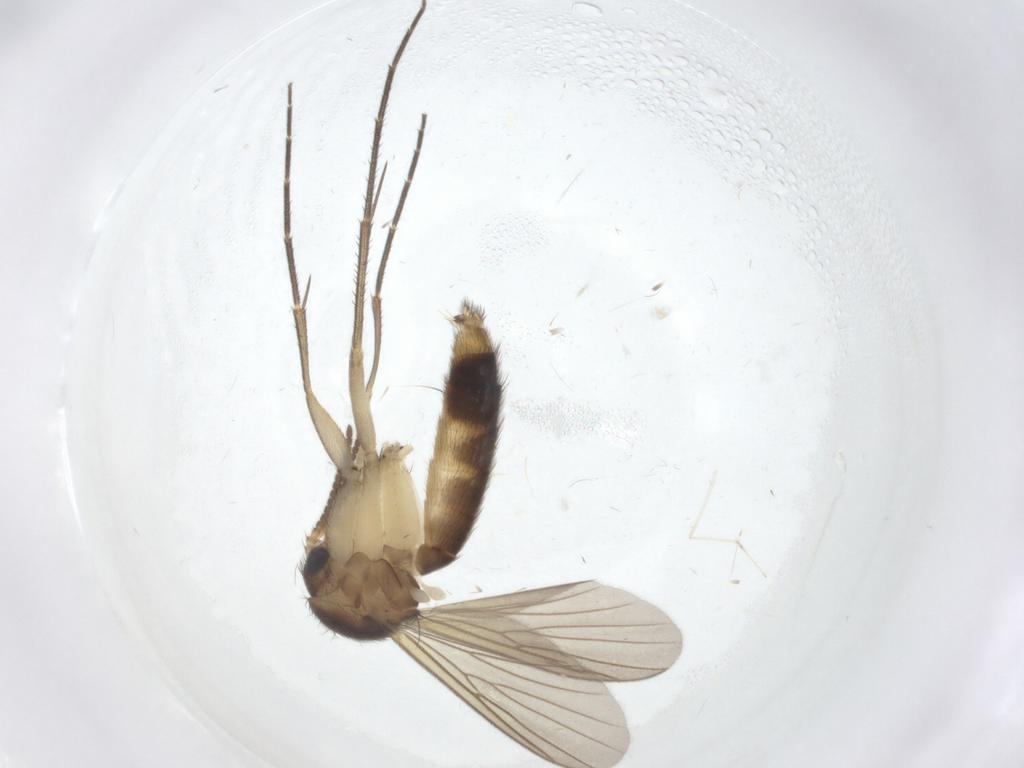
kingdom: Animalia
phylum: Arthropoda
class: Insecta
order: Diptera
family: Mycetophilidae
